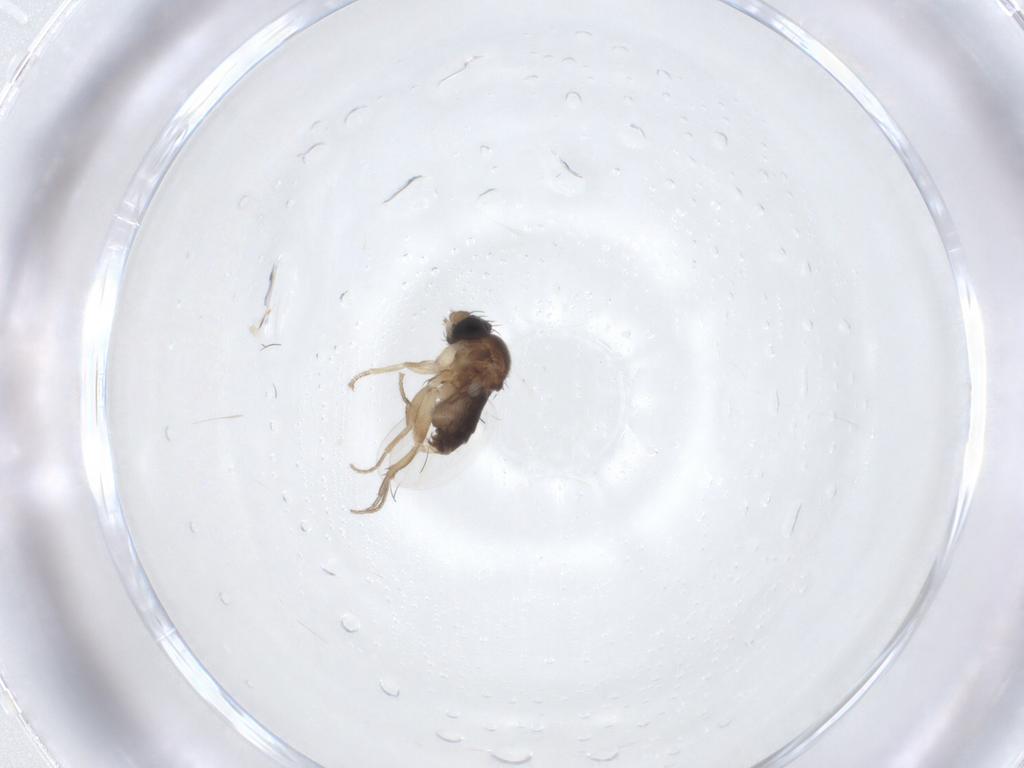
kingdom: Animalia
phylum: Arthropoda
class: Insecta
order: Diptera
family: Phoridae
